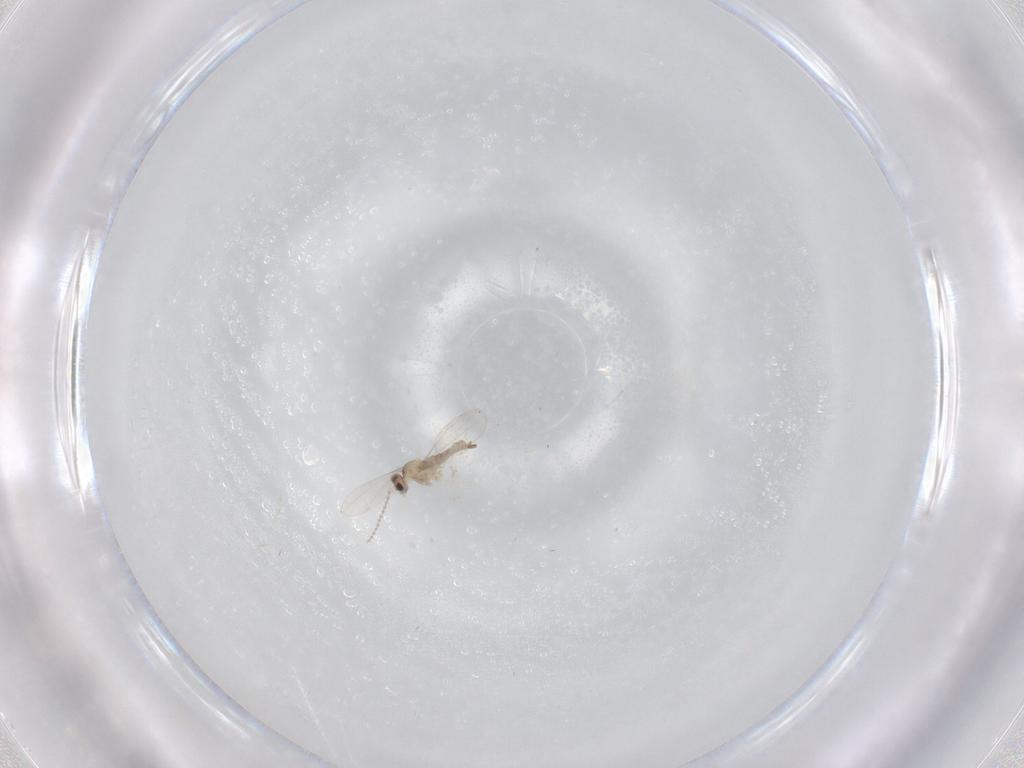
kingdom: Animalia
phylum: Arthropoda
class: Insecta
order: Diptera
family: Cecidomyiidae
